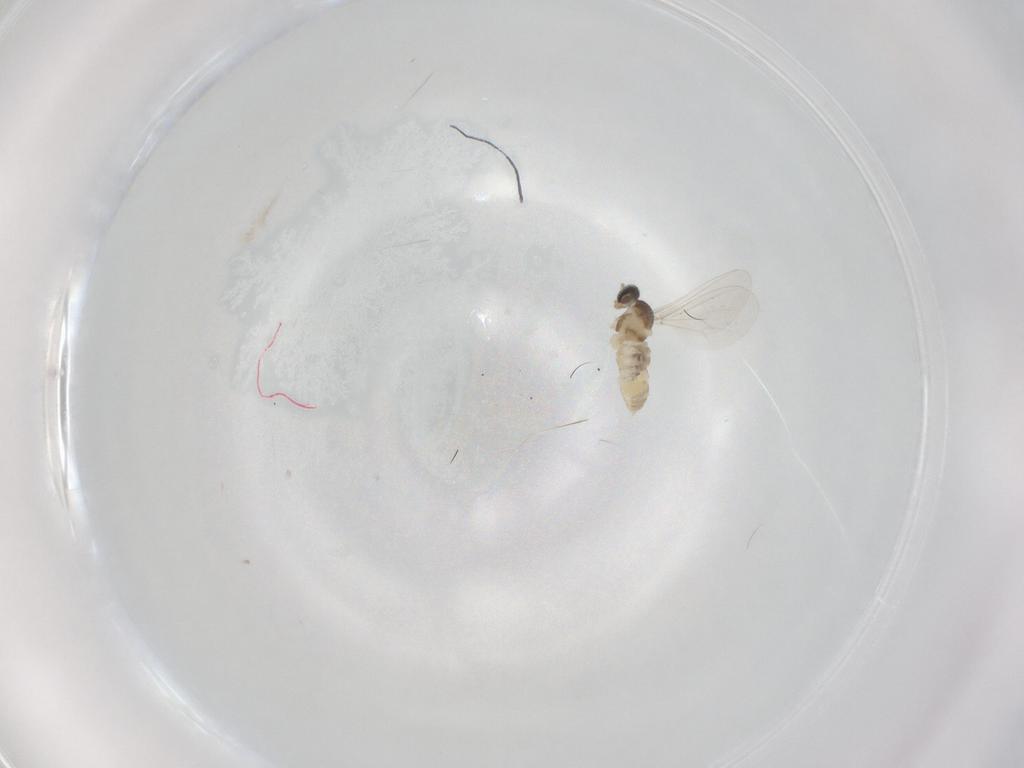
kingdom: Animalia
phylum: Arthropoda
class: Insecta
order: Diptera
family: Cecidomyiidae
